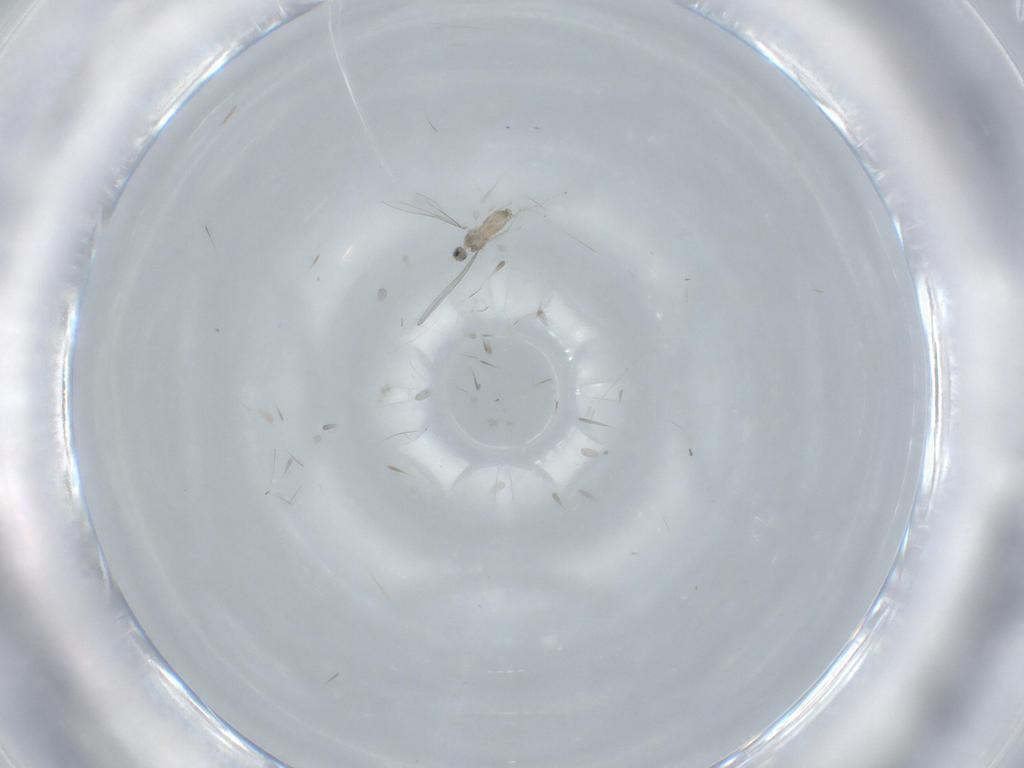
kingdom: Animalia
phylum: Arthropoda
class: Insecta
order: Diptera
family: Cecidomyiidae
